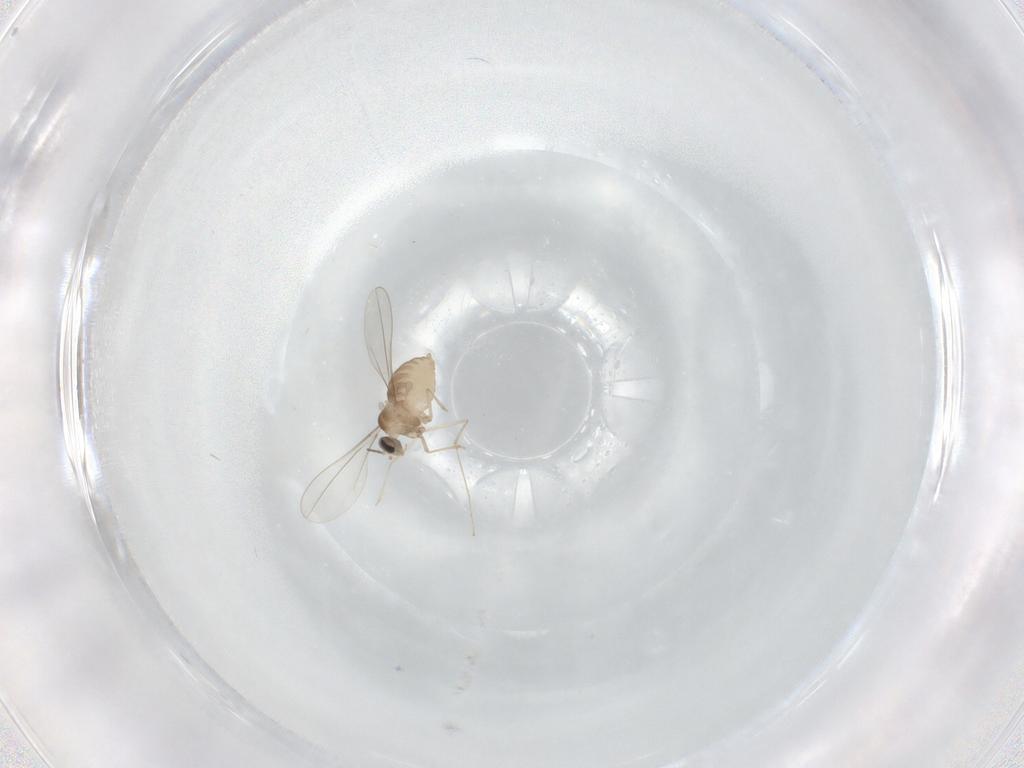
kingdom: Animalia
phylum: Arthropoda
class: Insecta
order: Diptera
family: Cecidomyiidae
